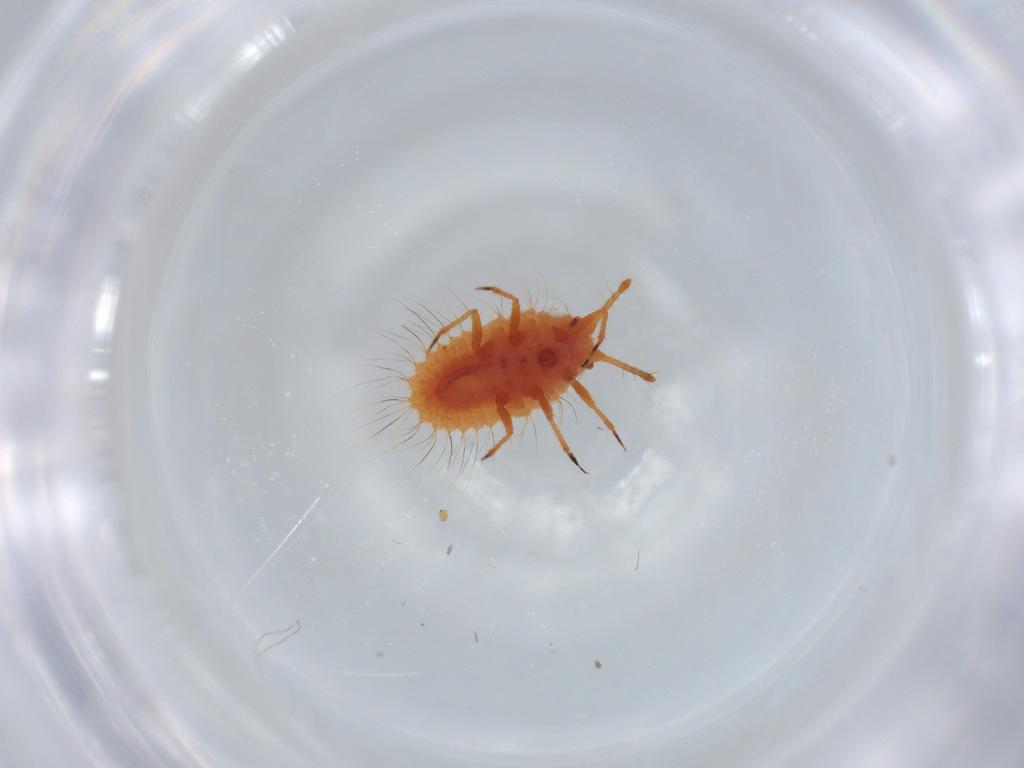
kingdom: Animalia
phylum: Arthropoda
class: Insecta
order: Hemiptera
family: Coccoidea_incertae_sedis
